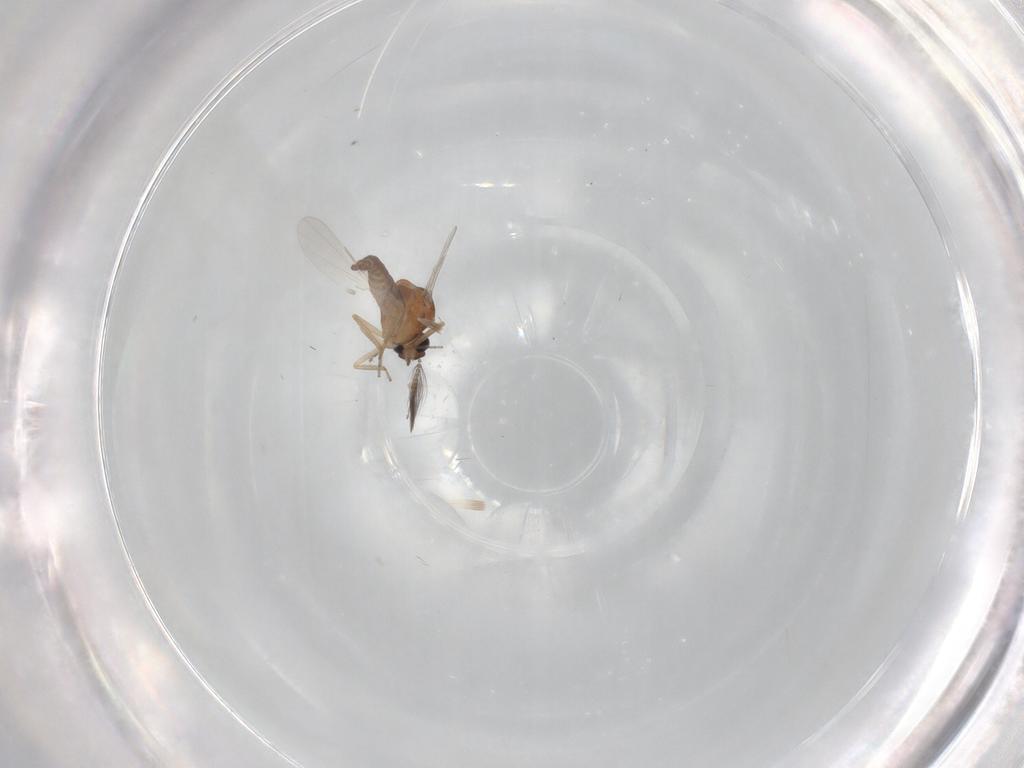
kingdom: Animalia
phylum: Arthropoda
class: Insecta
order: Diptera
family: Ceratopogonidae
